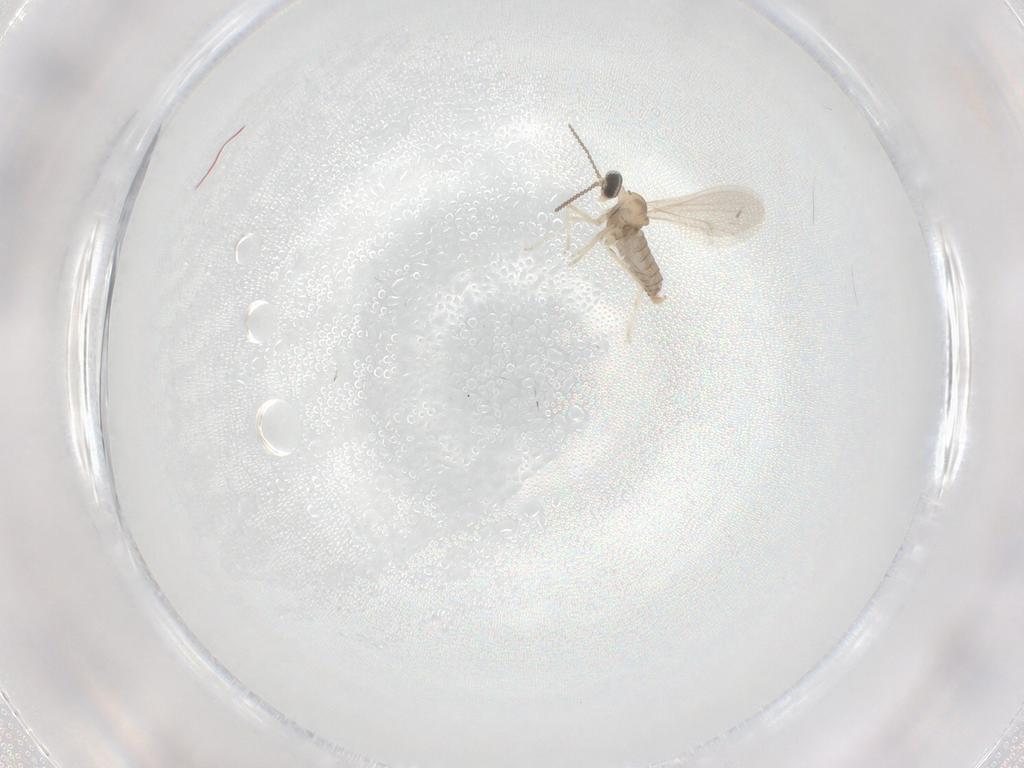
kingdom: Animalia
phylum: Arthropoda
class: Insecta
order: Diptera
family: Cecidomyiidae
